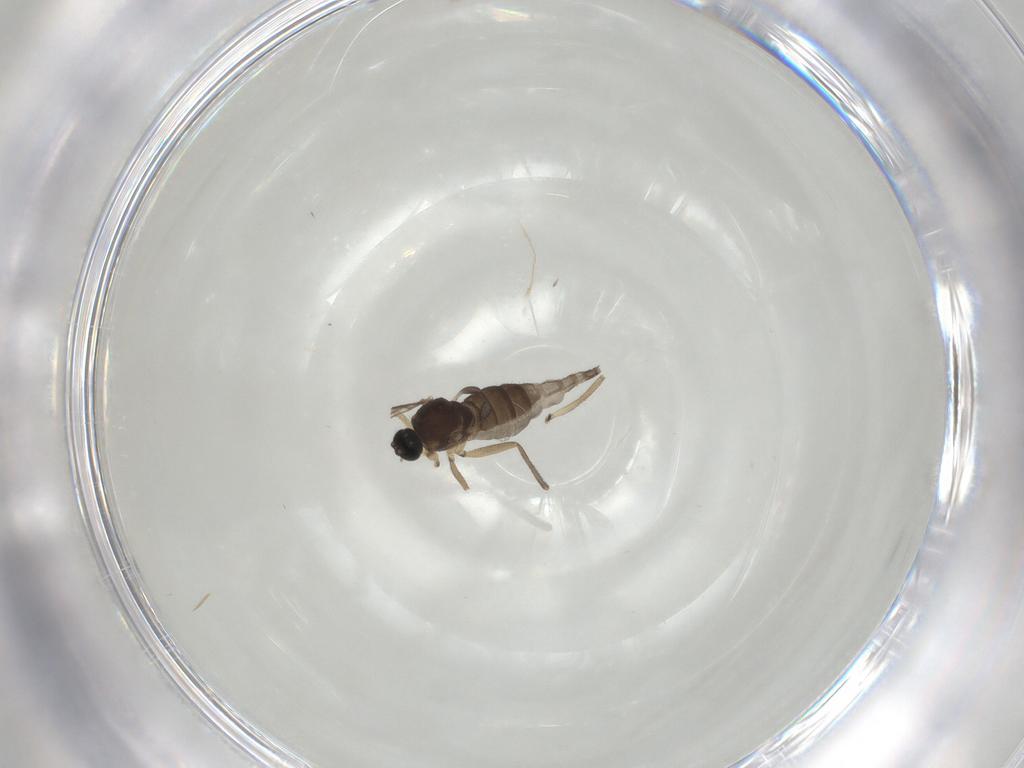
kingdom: Animalia
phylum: Arthropoda
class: Insecta
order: Diptera
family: Sciaridae
